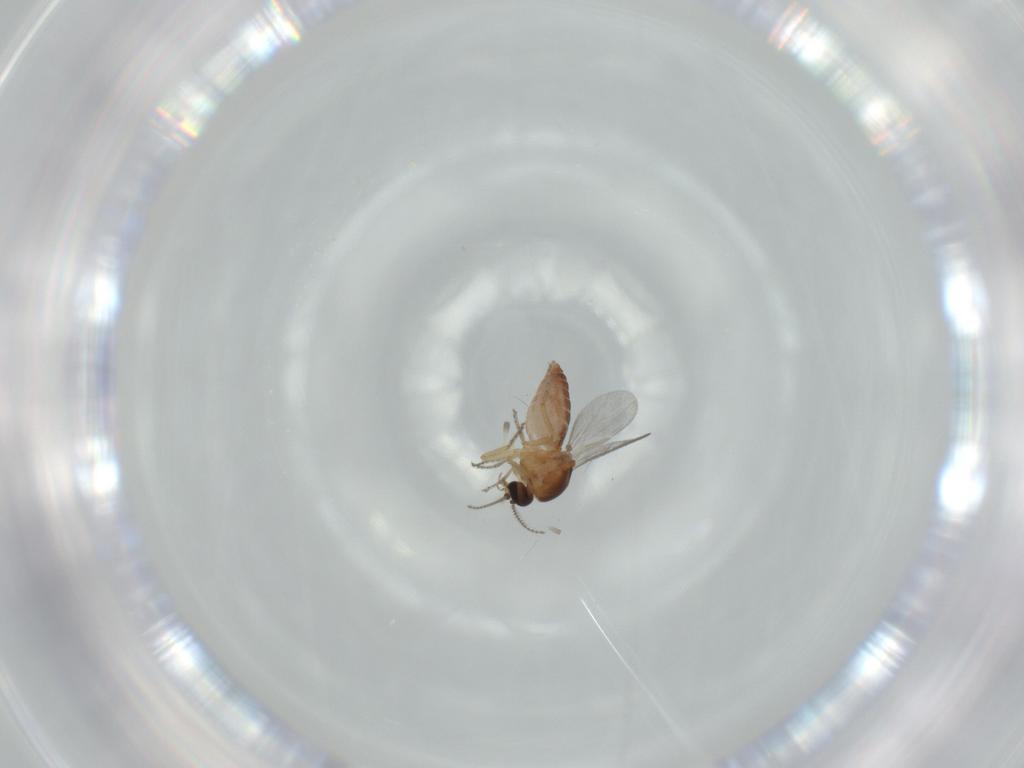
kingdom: Animalia
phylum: Arthropoda
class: Insecta
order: Diptera
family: Ceratopogonidae
